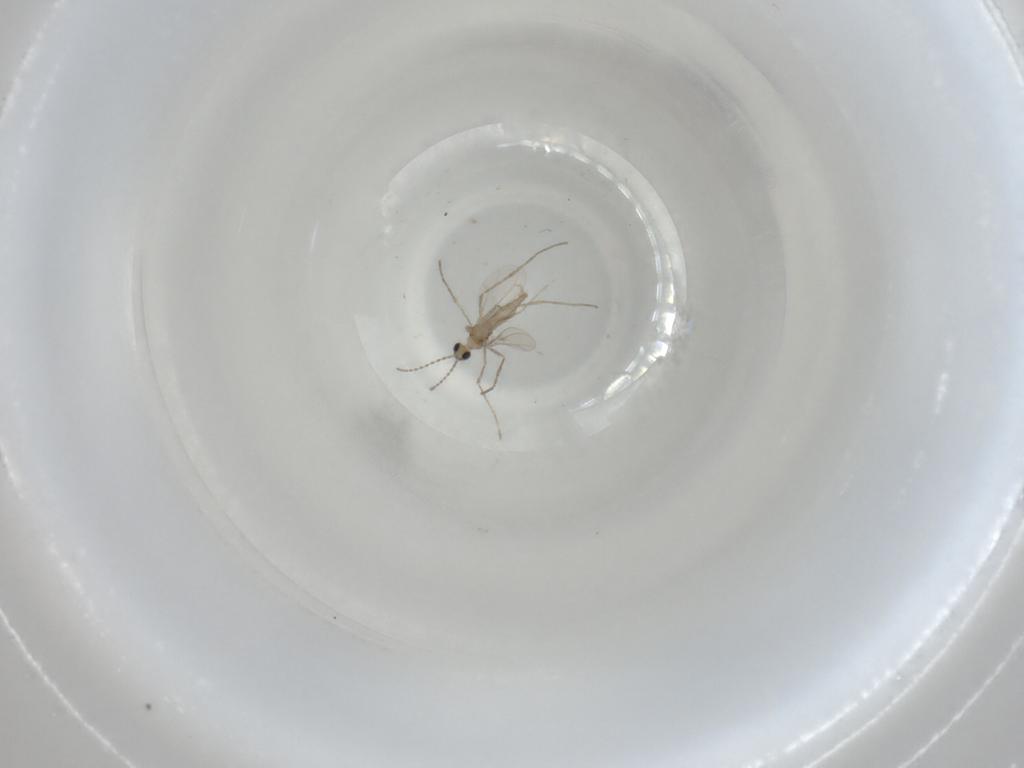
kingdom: Animalia
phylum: Arthropoda
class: Insecta
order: Diptera
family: Cecidomyiidae
